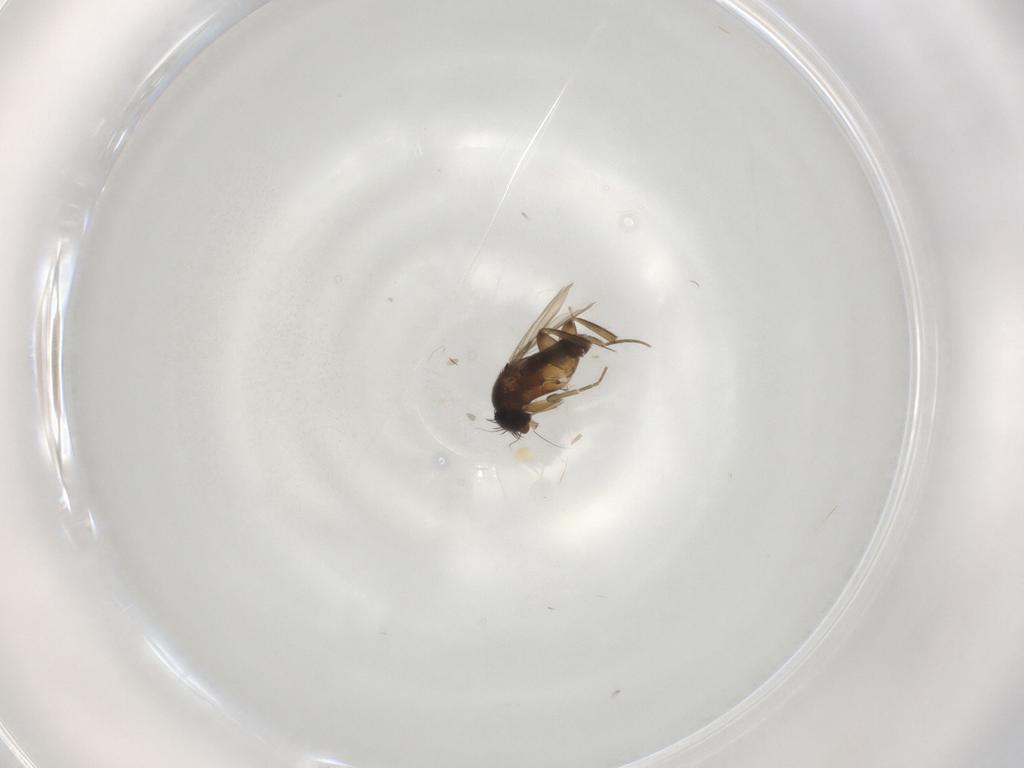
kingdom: Animalia
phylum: Arthropoda
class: Insecta
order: Diptera
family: Phoridae
